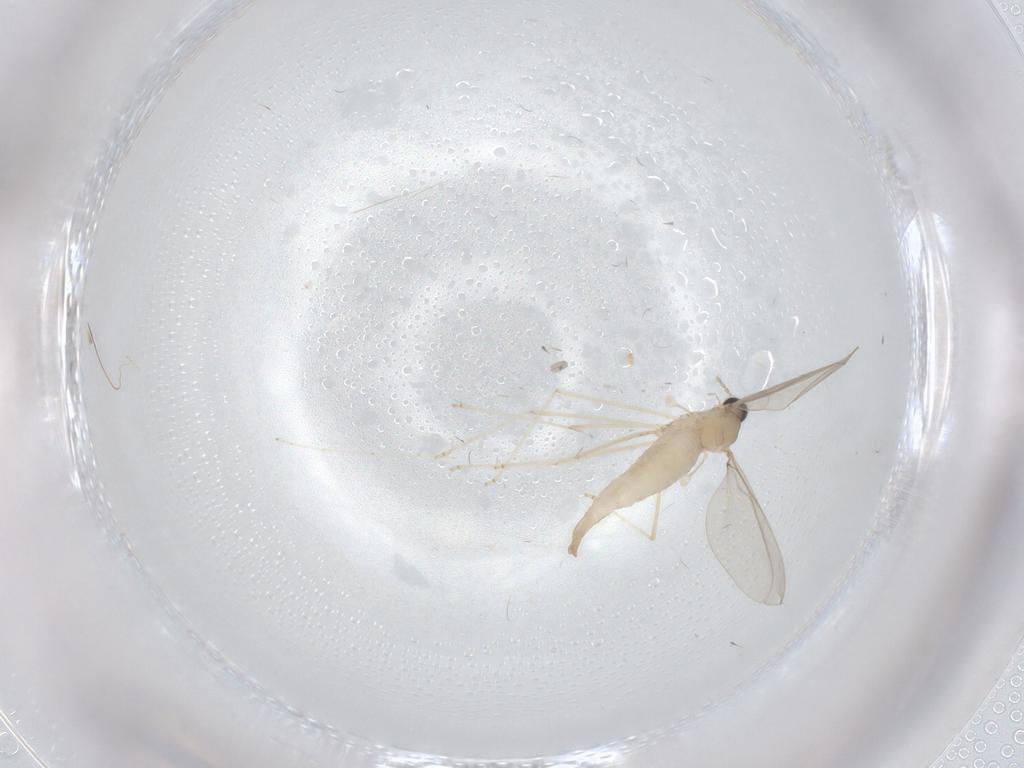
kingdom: Animalia
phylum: Arthropoda
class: Insecta
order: Diptera
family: Cecidomyiidae
